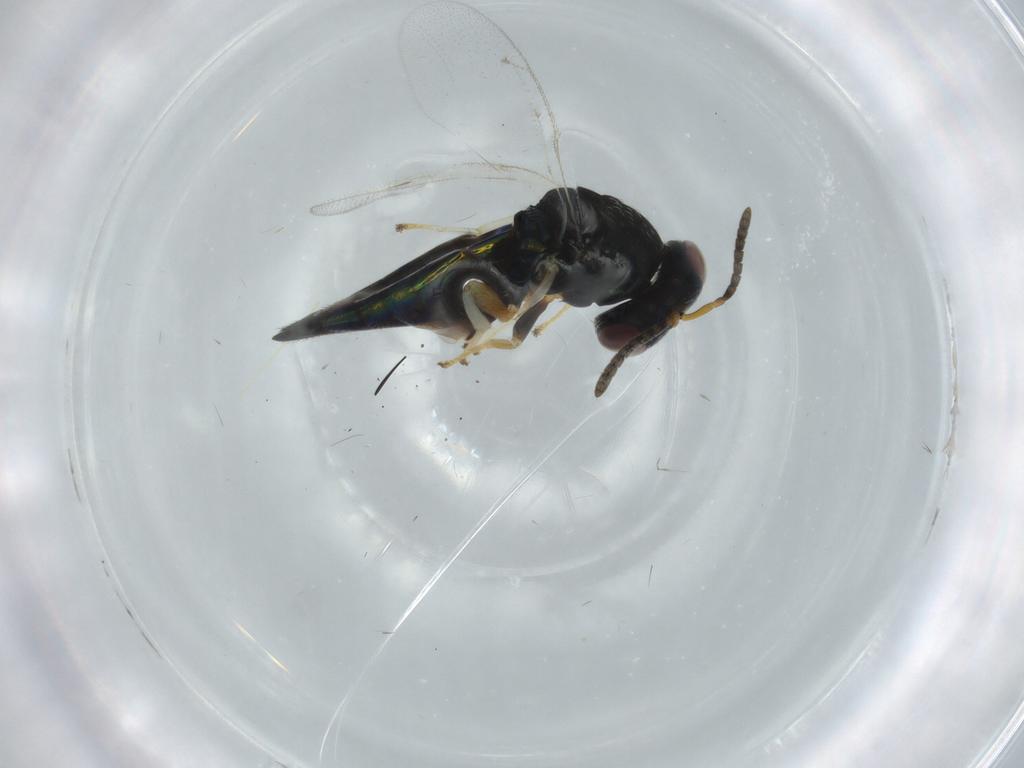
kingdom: Animalia
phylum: Arthropoda
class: Insecta
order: Hymenoptera
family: Pteromalidae
